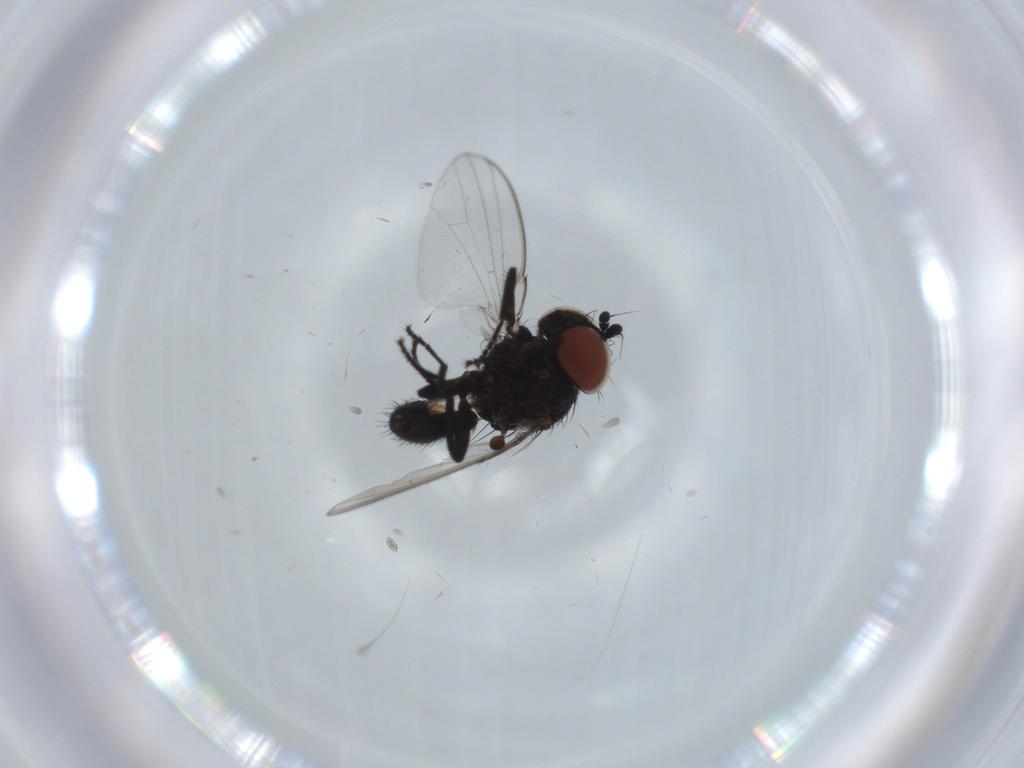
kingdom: Animalia
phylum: Arthropoda
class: Insecta
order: Diptera
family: Milichiidae
